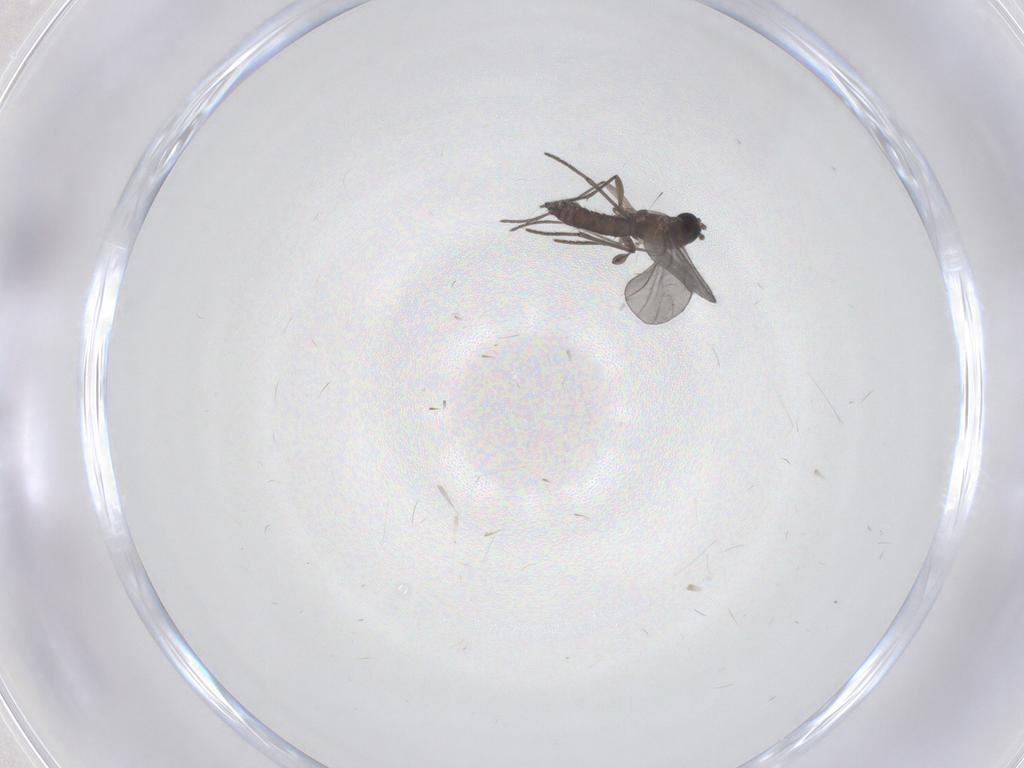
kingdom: Animalia
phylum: Arthropoda
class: Insecta
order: Diptera
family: Sciaridae
